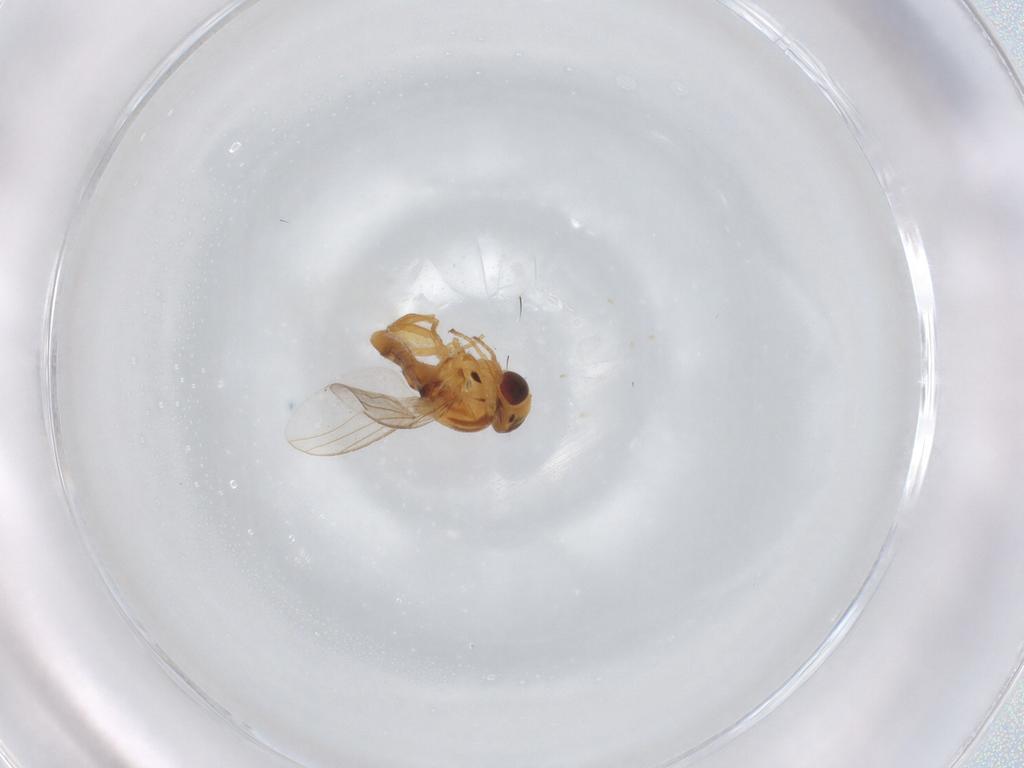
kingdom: Animalia
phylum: Arthropoda
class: Insecta
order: Diptera
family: Chloropidae
